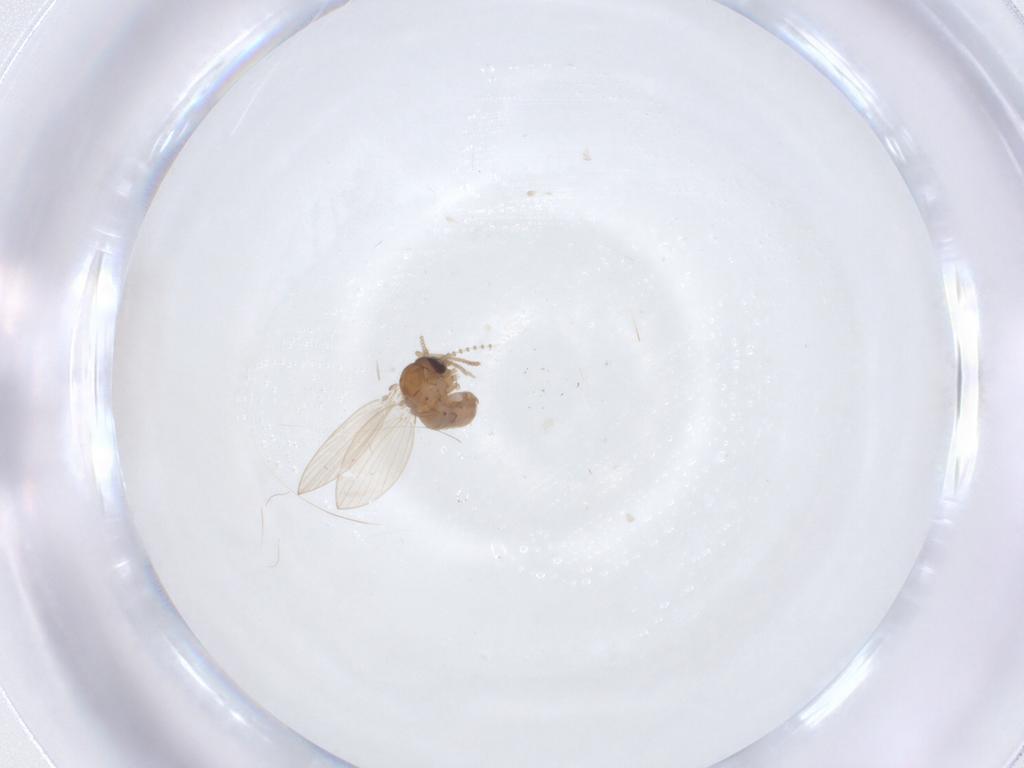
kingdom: Animalia
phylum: Arthropoda
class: Insecta
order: Diptera
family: Psychodidae
